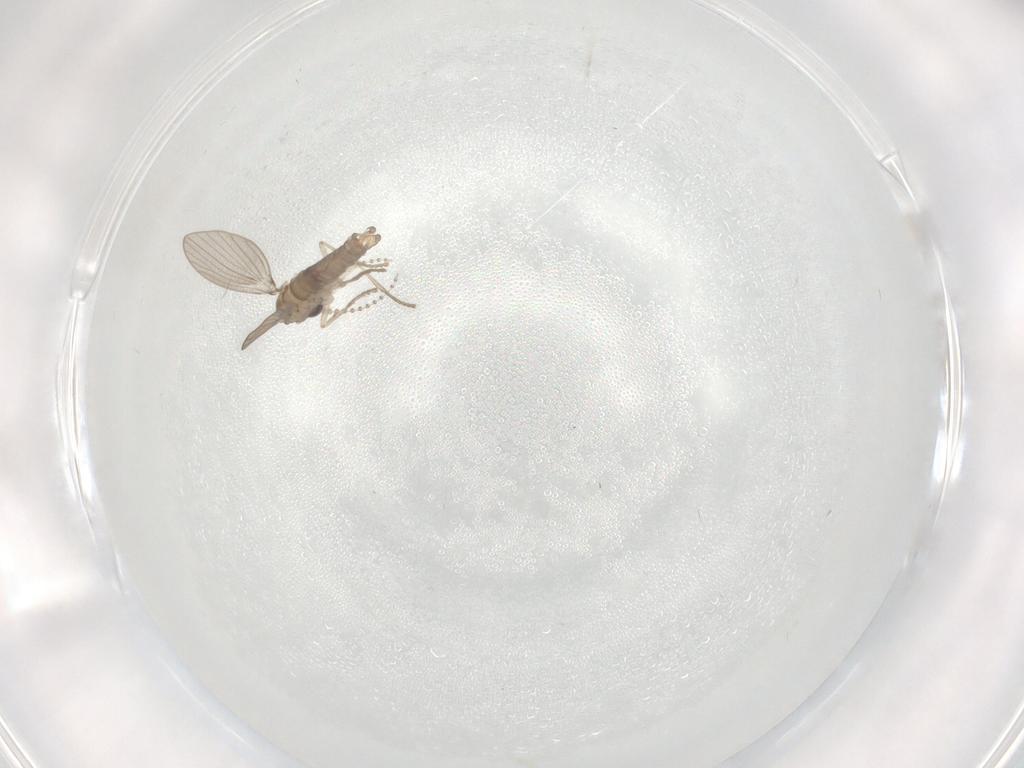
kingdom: Animalia
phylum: Arthropoda
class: Insecta
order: Diptera
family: Psychodidae
